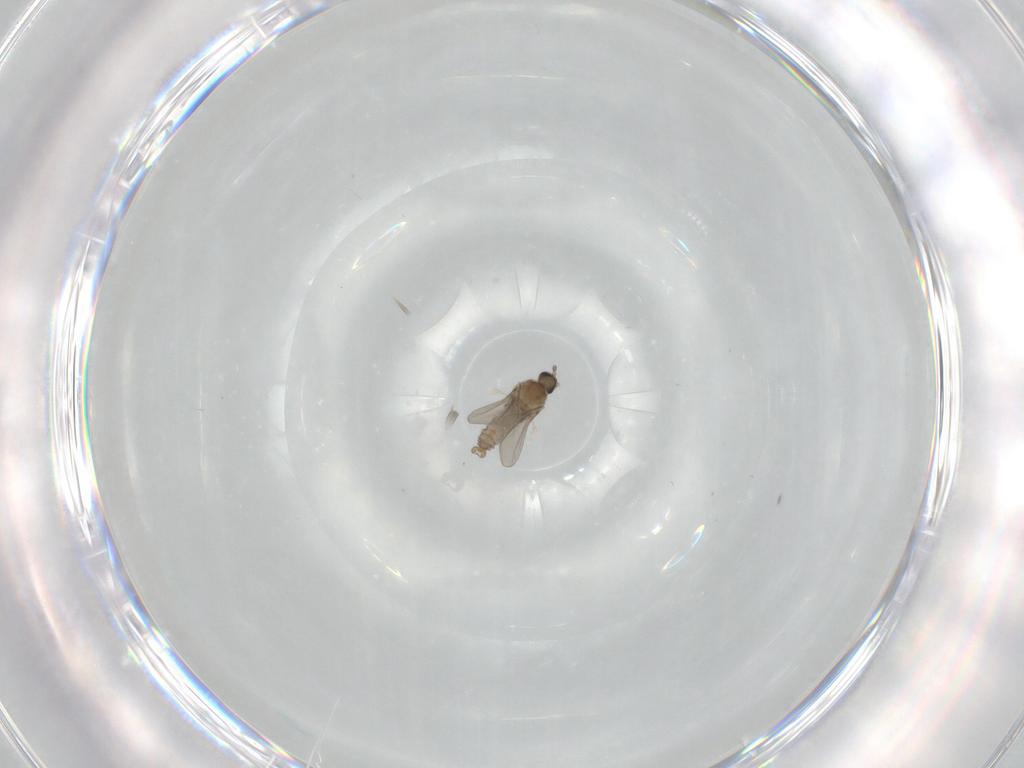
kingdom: Animalia
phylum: Arthropoda
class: Insecta
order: Diptera
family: Scatopsidae
